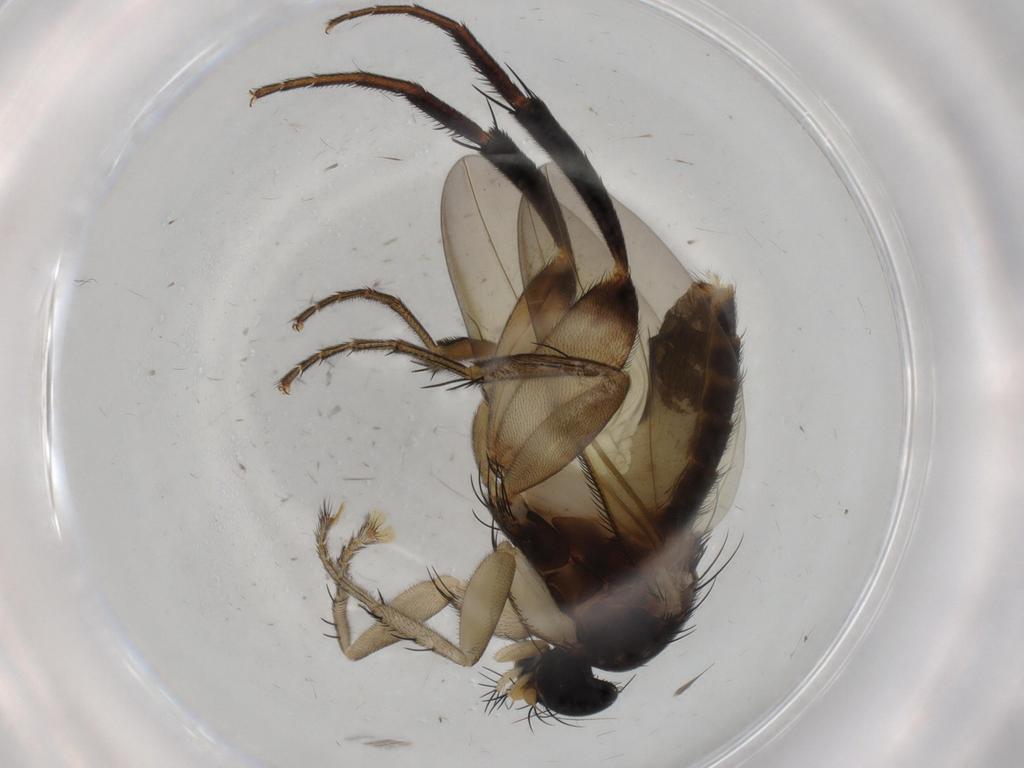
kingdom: Animalia
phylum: Arthropoda
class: Insecta
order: Diptera
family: Phoridae
